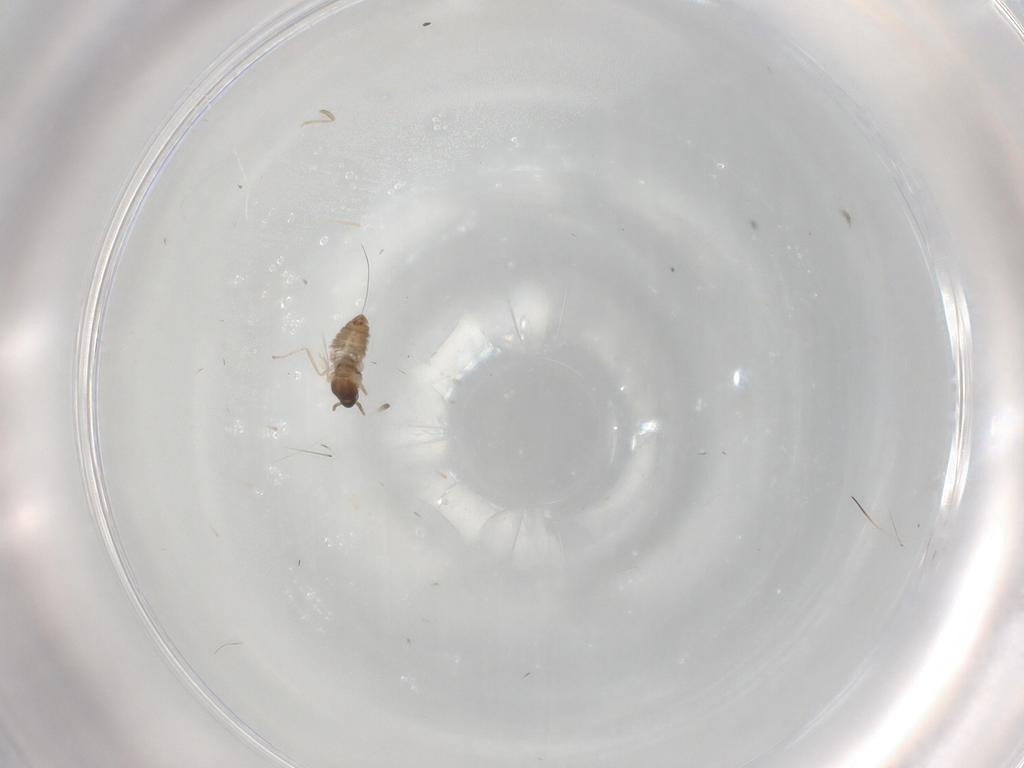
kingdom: Animalia
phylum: Arthropoda
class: Insecta
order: Diptera
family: Cecidomyiidae
